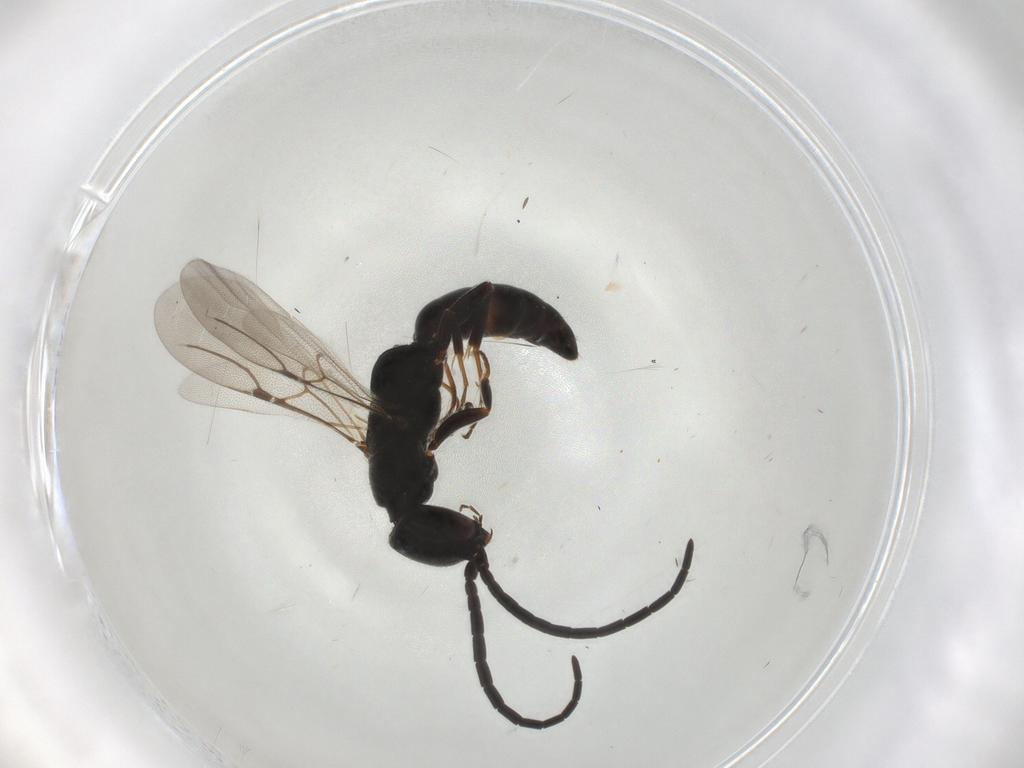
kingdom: Animalia
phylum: Arthropoda
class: Insecta
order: Hymenoptera
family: Bethylidae
